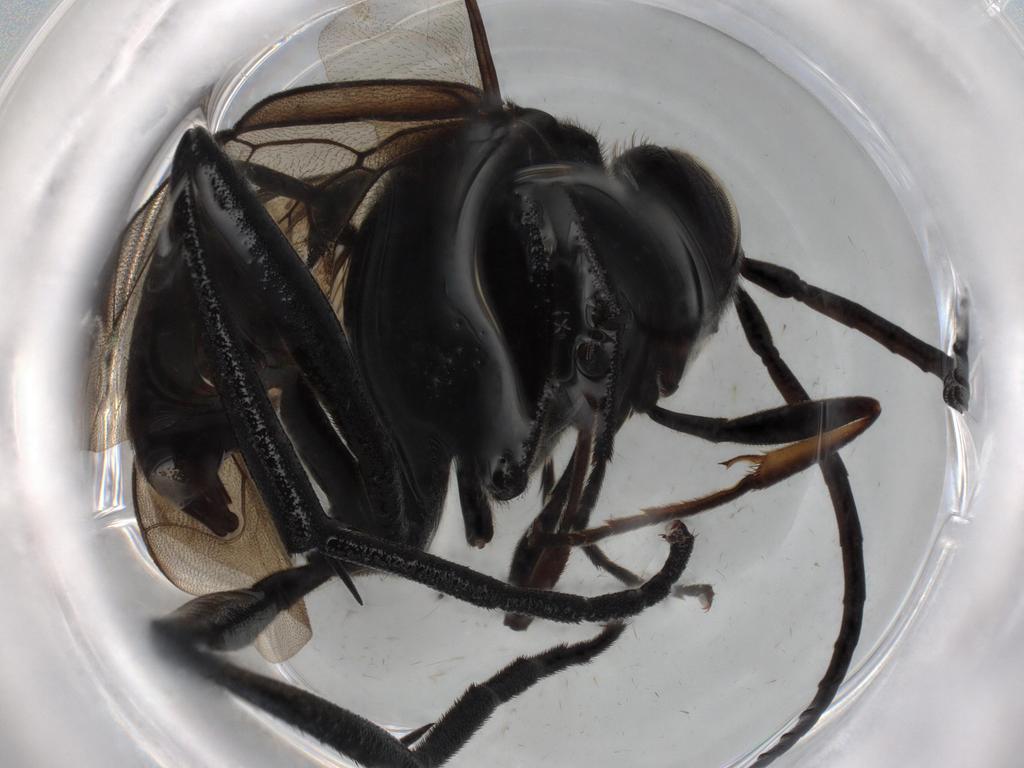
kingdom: Animalia
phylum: Arthropoda
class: Insecta
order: Hymenoptera
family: Evaniidae
